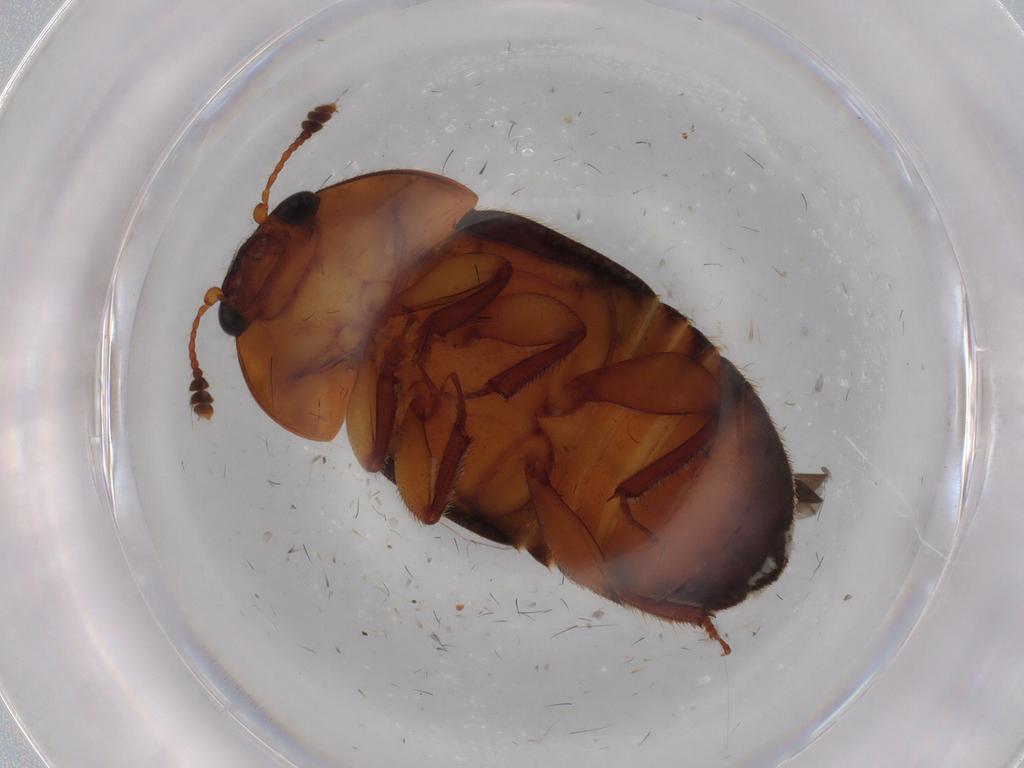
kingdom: Animalia
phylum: Arthropoda
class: Insecta
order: Coleoptera
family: Nitidulidae
